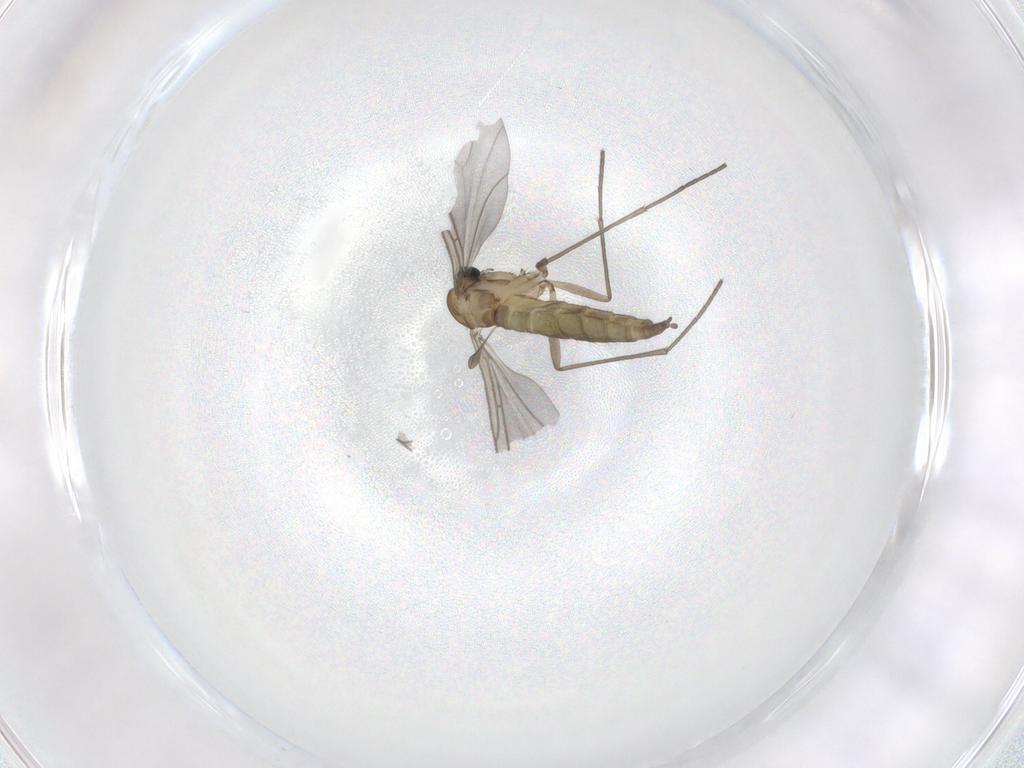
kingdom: Animalia
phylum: Arthropoda
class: Insecta
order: Diptera
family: Sciaridae
